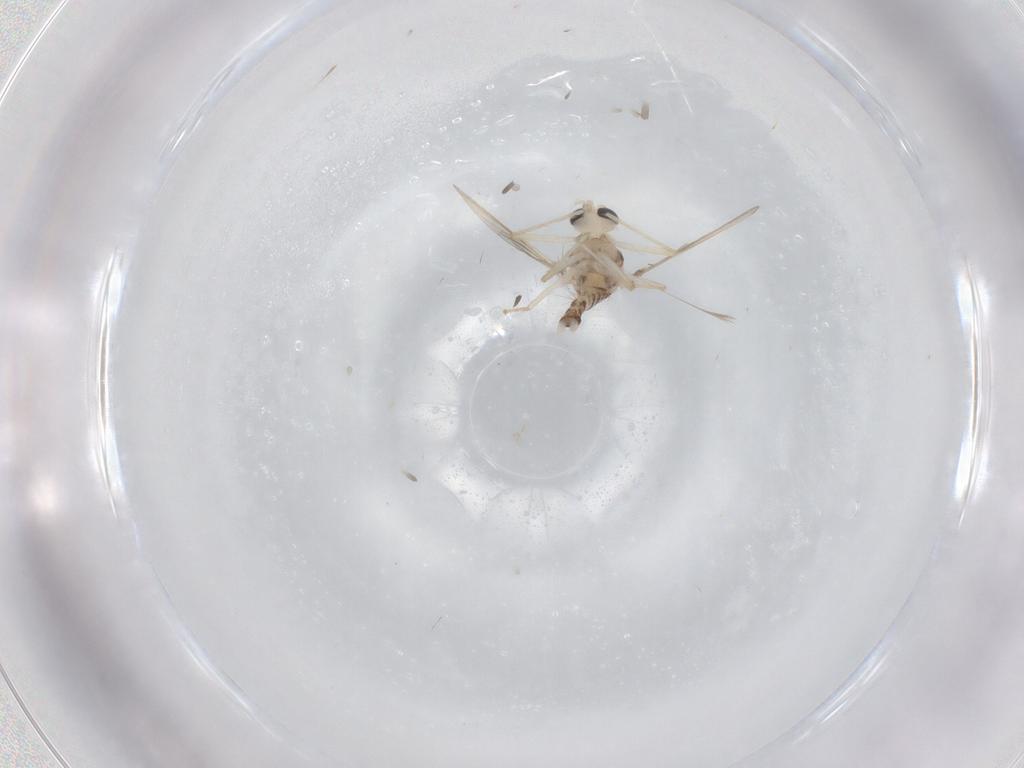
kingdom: Animalia
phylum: Arthropoda
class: Insecta
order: Diptera
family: Chironomidae
